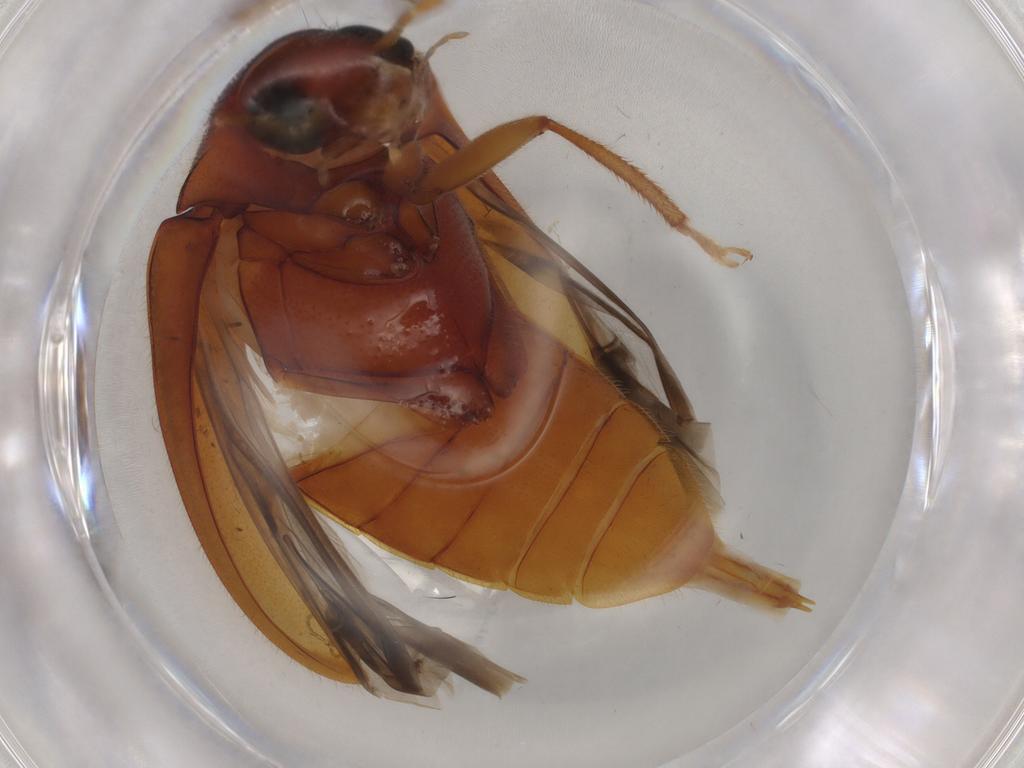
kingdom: Animalia
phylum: Arthropoda
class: Insecta
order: Coleoptera
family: Ptilodactylidae
